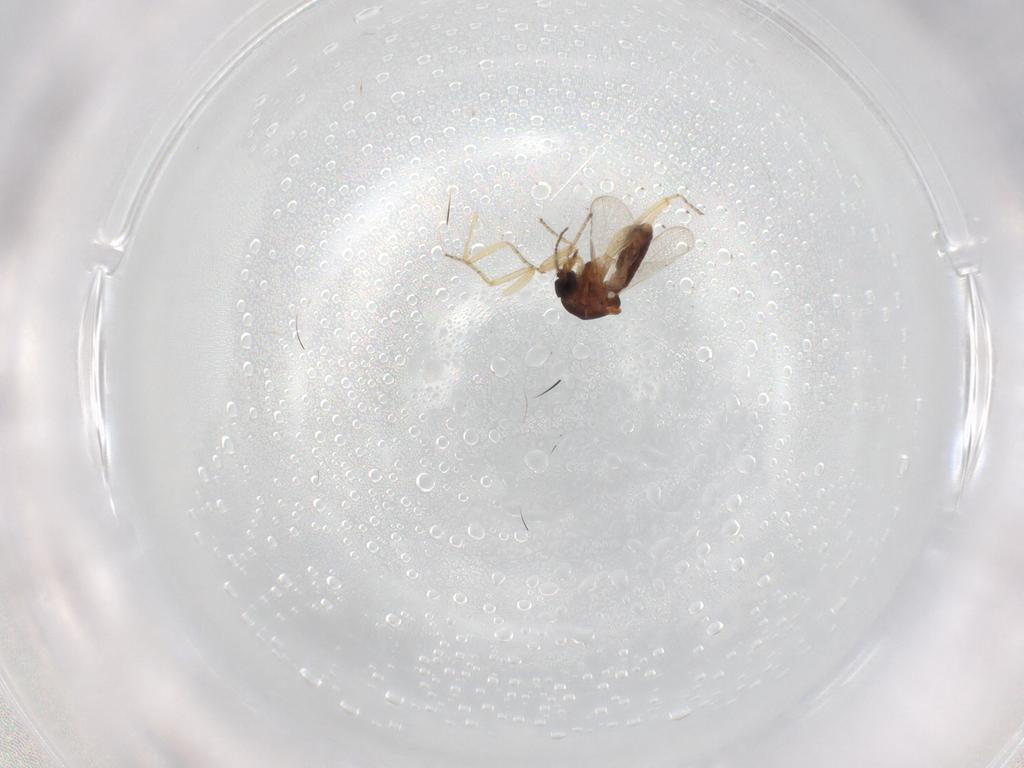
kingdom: Animalia
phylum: Arthropoda
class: Insecta
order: Diptera
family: Ceratopogonidae
